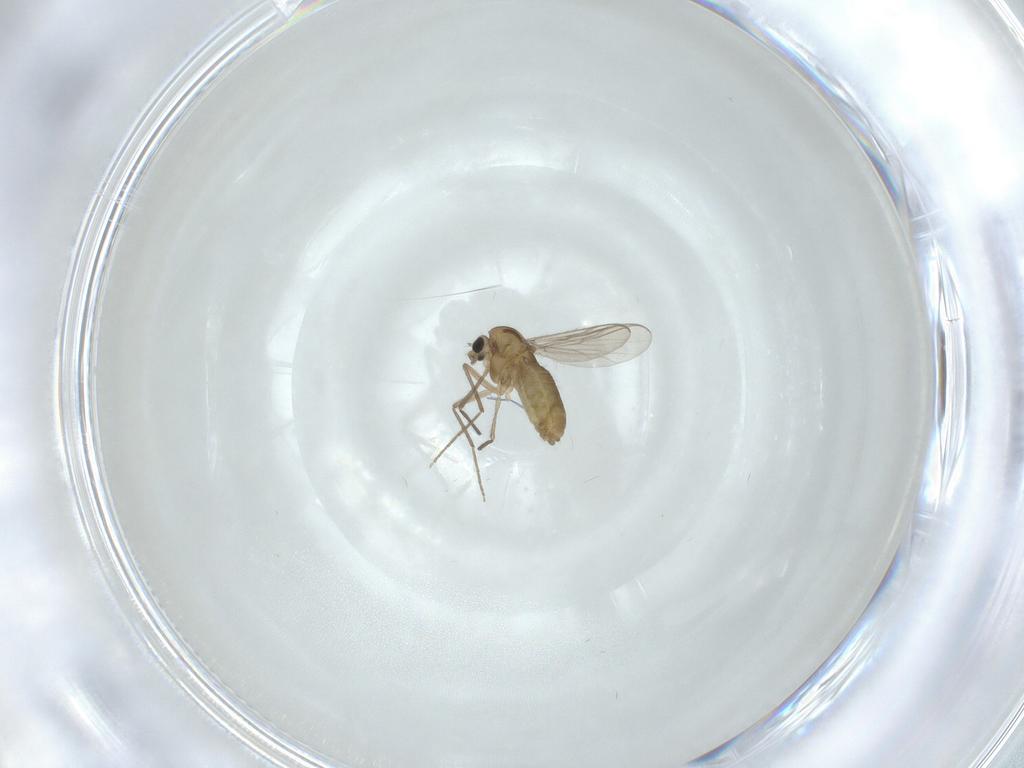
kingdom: Animalia
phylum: Arthropoda
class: Insecta
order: Diptera
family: Chironomidae
